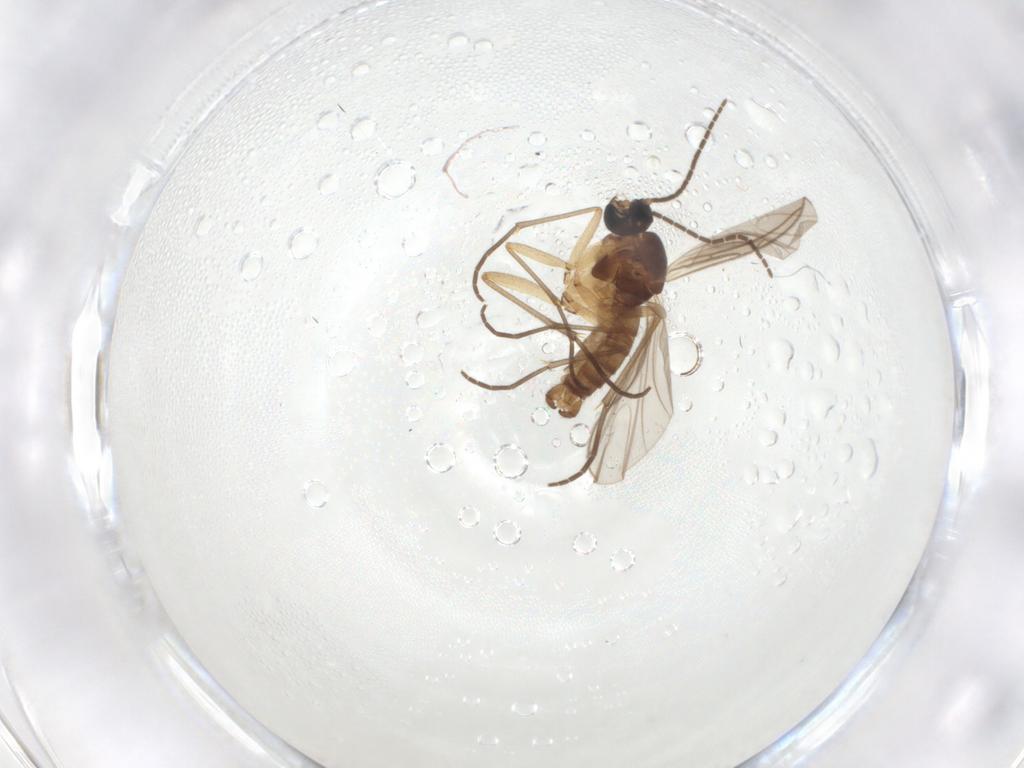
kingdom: Animalia
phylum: Arthropoda
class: Insecta
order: Diptera
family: Sciaridae
